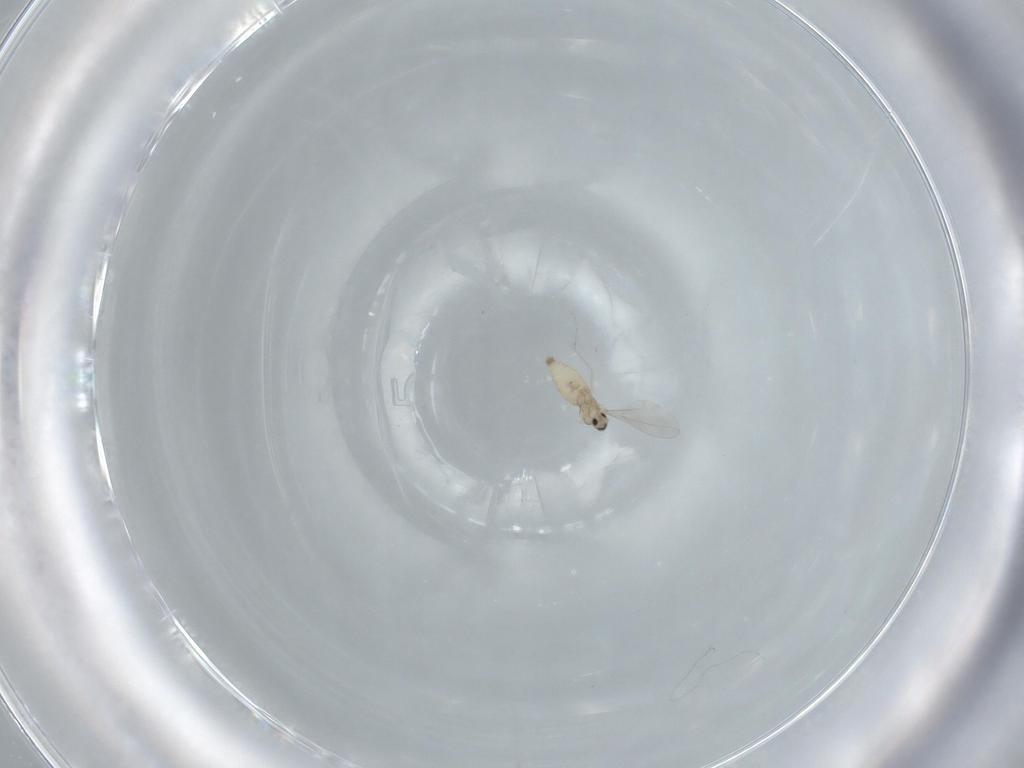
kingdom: Animalia
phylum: Arthropoda
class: Insecta
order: Diptera
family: Cecidomyiidae
